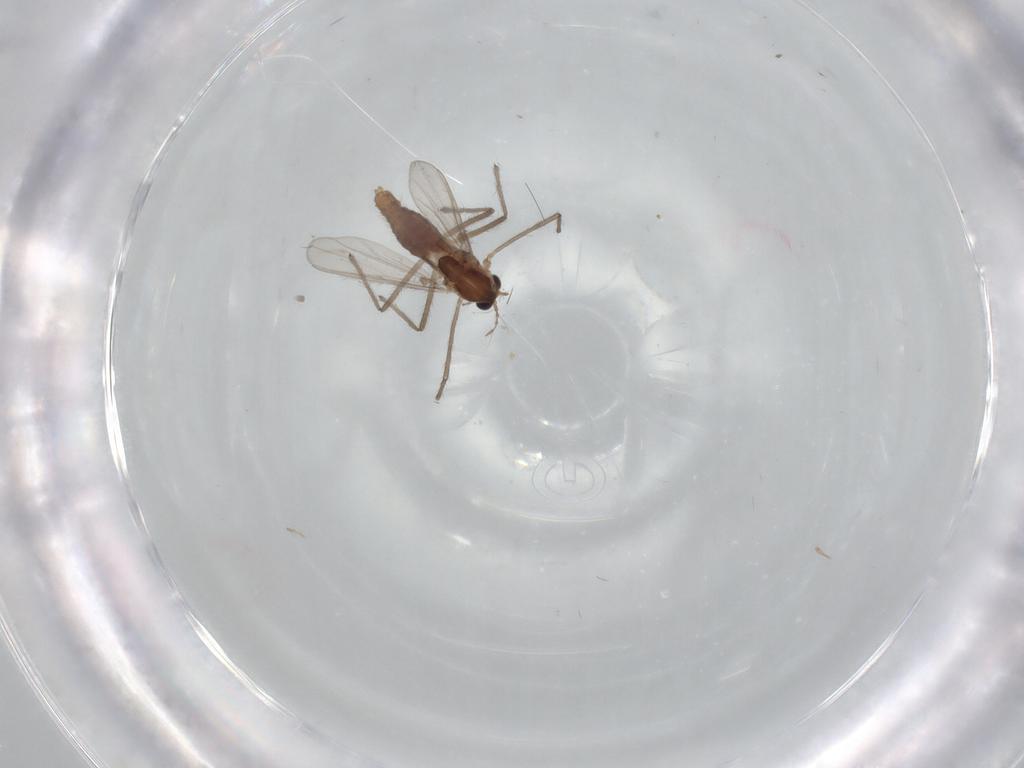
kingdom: Animalia
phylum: Arthropoda
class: Insecta
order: Diptera
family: Chironomidae
